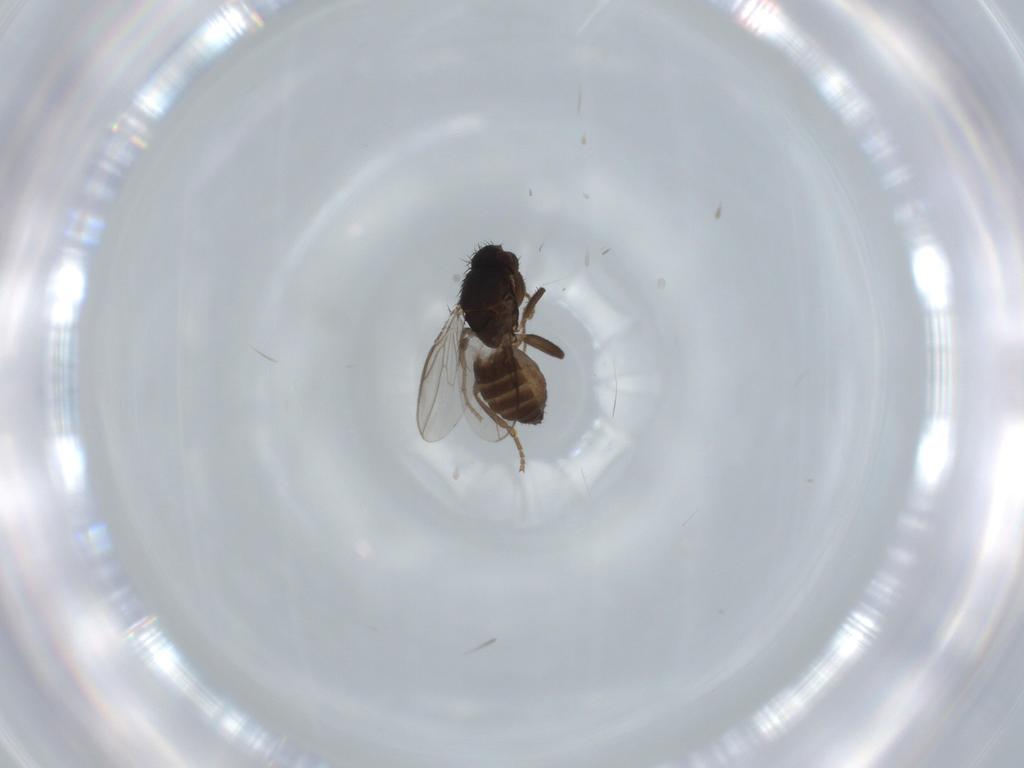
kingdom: Animalia
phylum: Arthropoda
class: Insecta
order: Diptera
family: Sphaeroceridae
